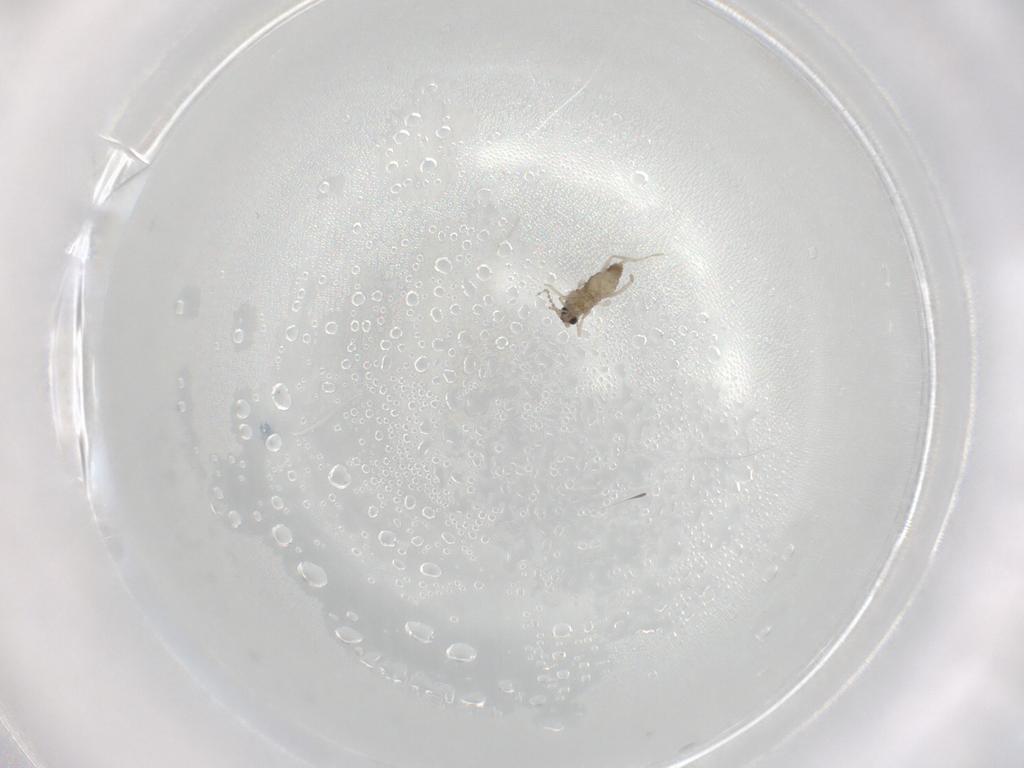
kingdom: Animalia
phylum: Arthropoda
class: Insecta
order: Diptera
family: Cecidomyiidae
